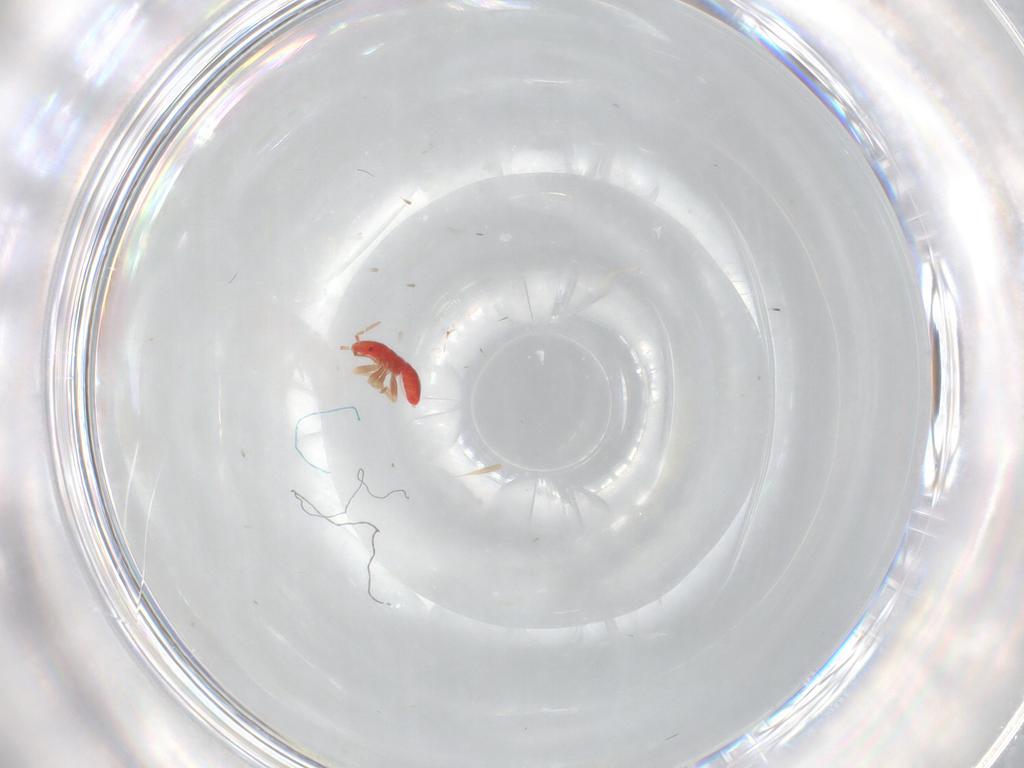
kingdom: Animalia
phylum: Arthropoda
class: Insecta
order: Hemiptera
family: Anthocoridae
